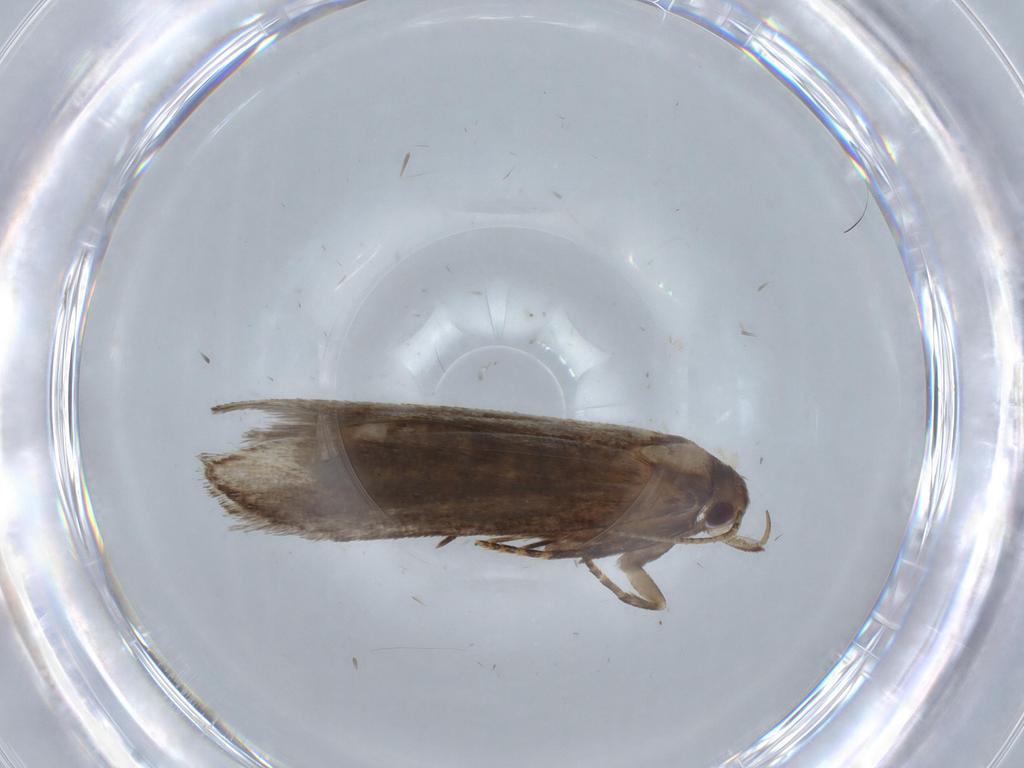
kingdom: Animalia
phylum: Arthropoda
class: Insecta
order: Lepidoptera
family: Gelechiidae
